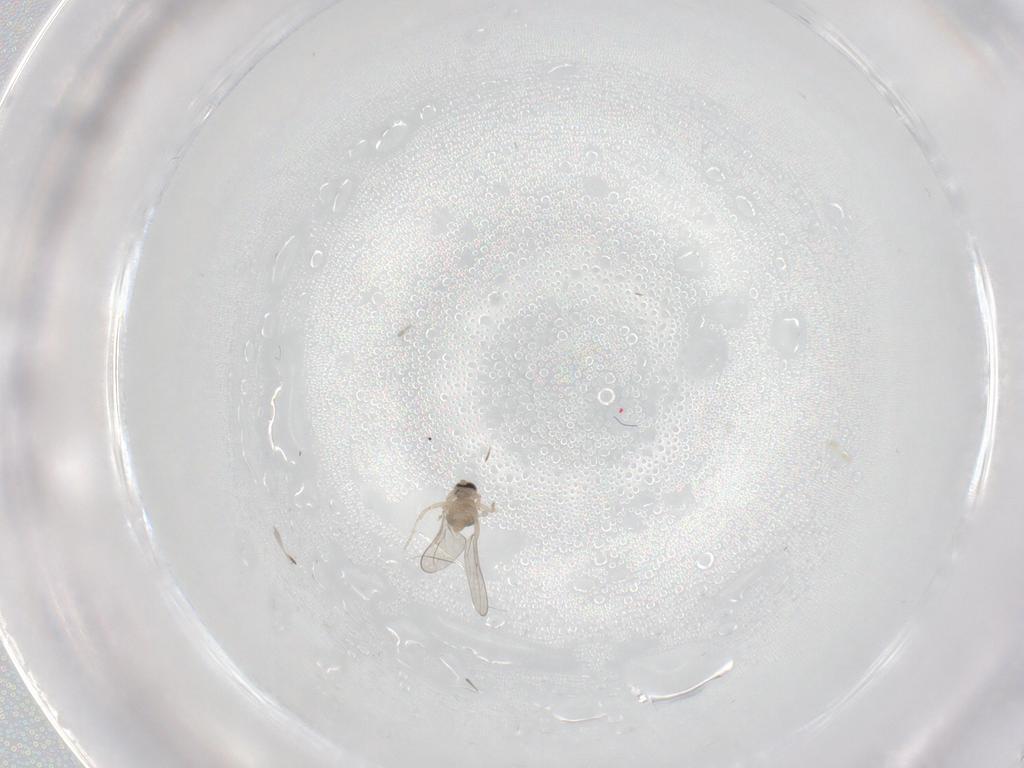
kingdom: Animalia
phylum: Arthropoda
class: Insecta
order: Diptera
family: Cecidomyiidae
